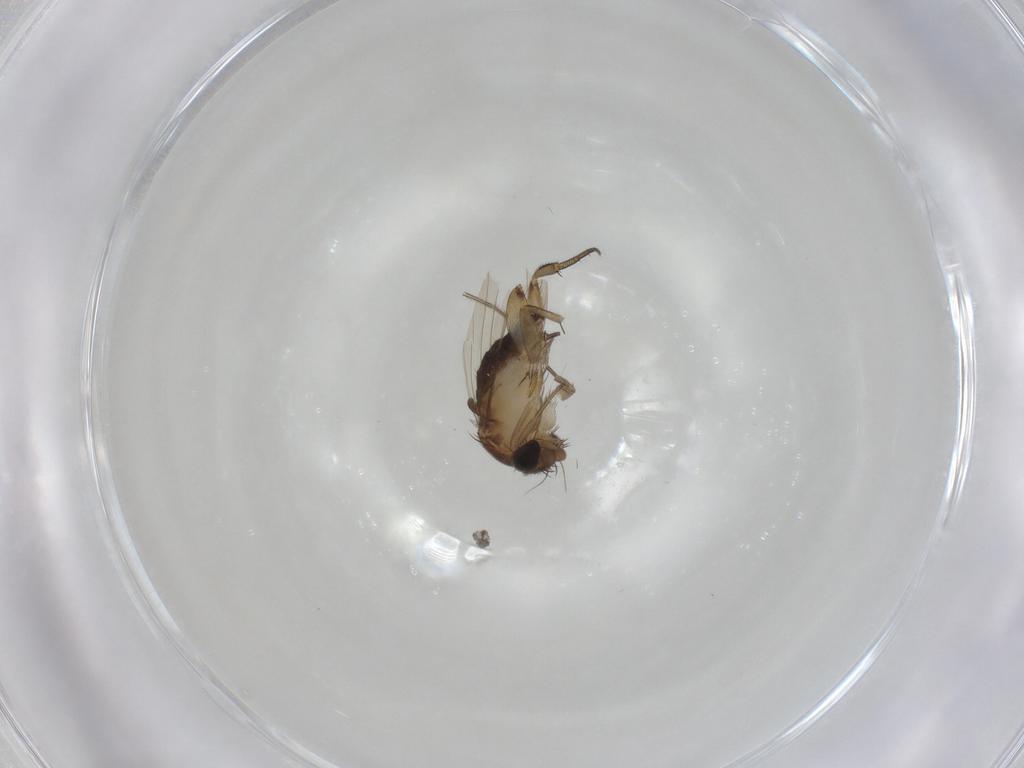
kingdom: Animalia
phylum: Arthropoda
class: Insecta
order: Diptera
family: Phoridae
